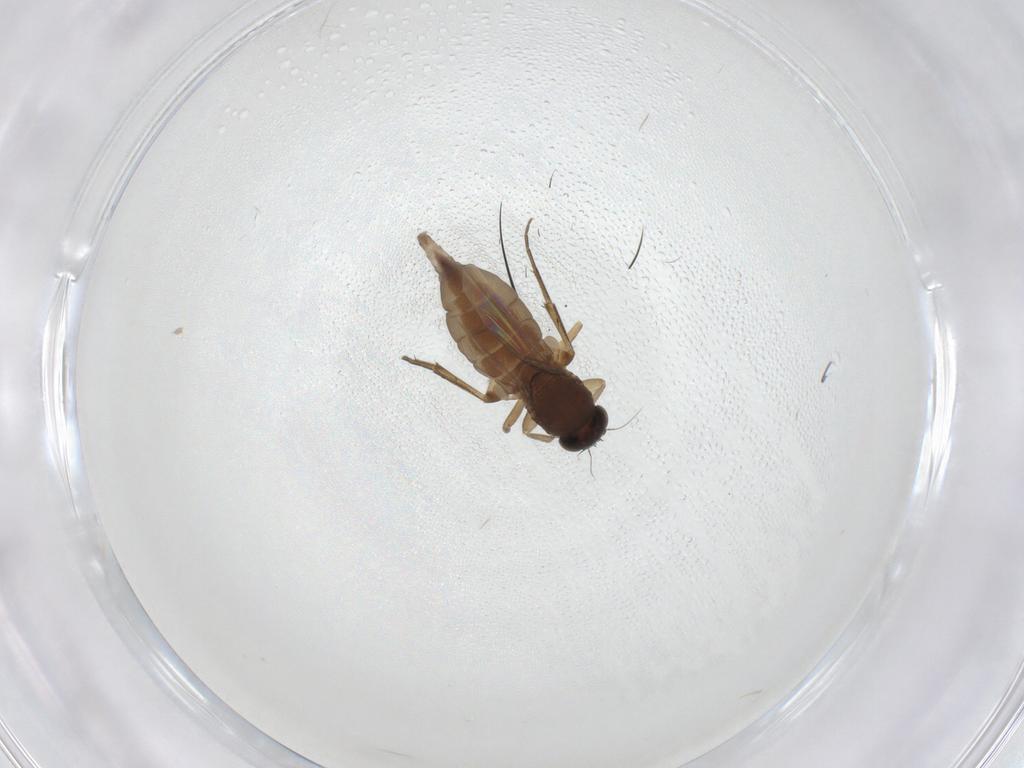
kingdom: Animalia
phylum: Arthropoda
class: Insecta
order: Diptera
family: Phoridae
